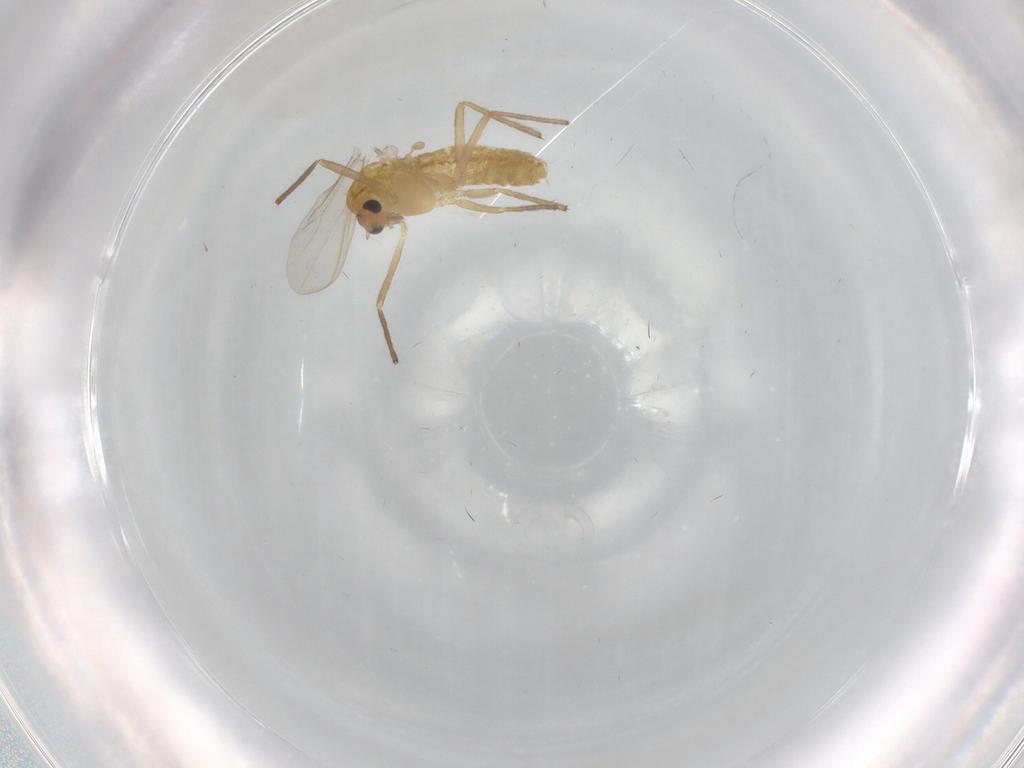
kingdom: Animalia
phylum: Arthropoda
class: Insecta
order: Diptera
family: Chironomidae
